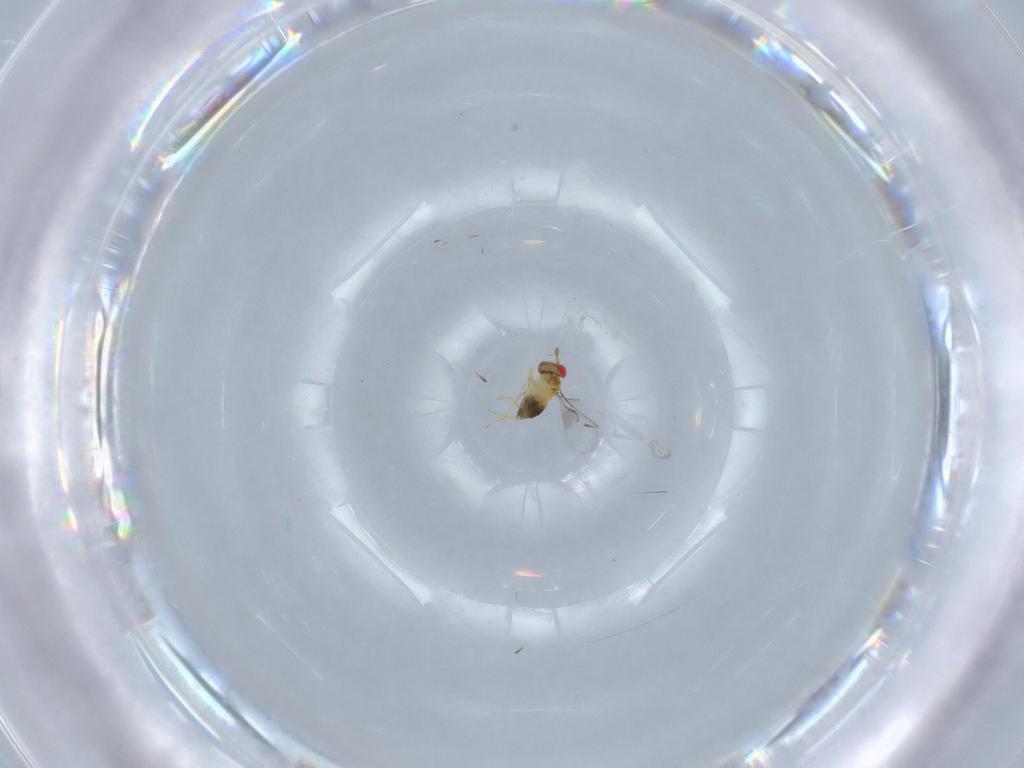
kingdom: Animalia
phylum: Arthropoda
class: Insecta
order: Hymenoptera
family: Trichogrammatidae
